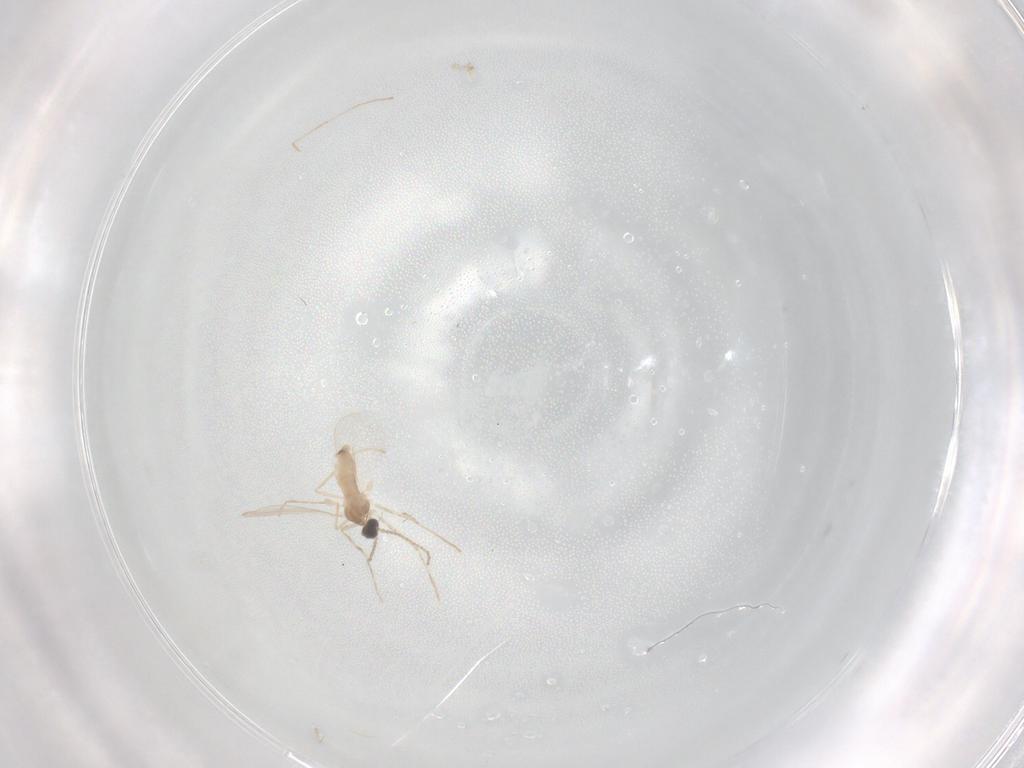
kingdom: Animalia
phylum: Arthropoda
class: Insecta
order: Diptera
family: Cecidomyiidae
